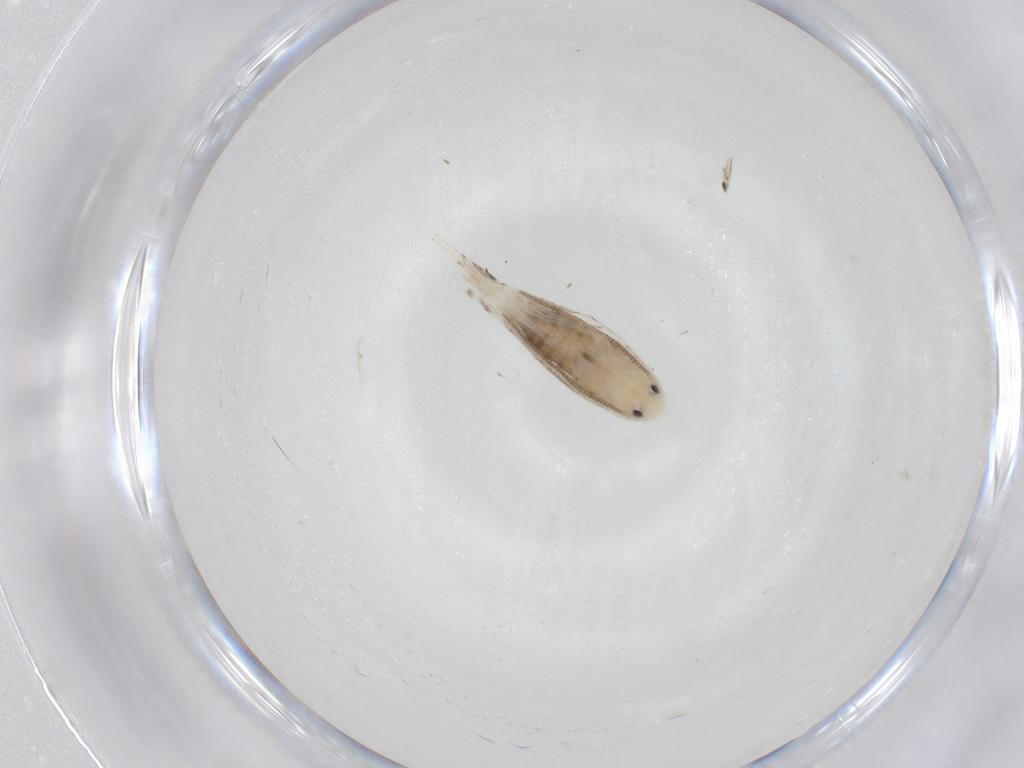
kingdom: Animalia
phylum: Arthropoda
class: Insecta
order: Lepidoptera
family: Erebidae
